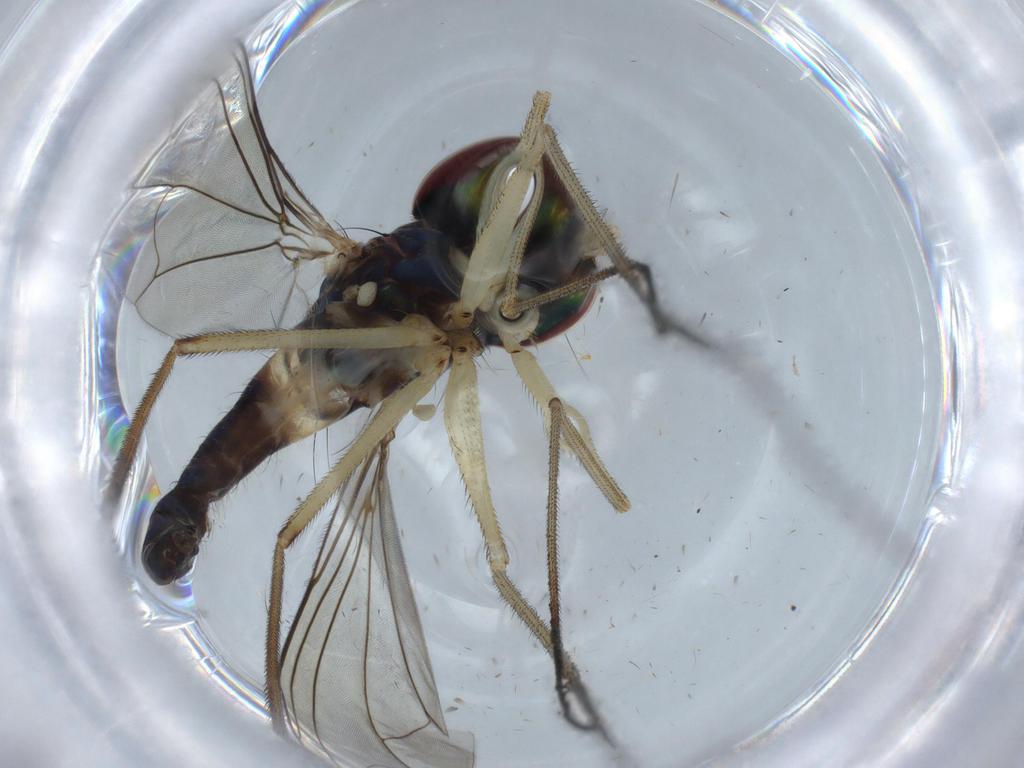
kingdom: Animalia
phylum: Arthropoda
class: Insecta
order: Diptera
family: Dolichopodidae
